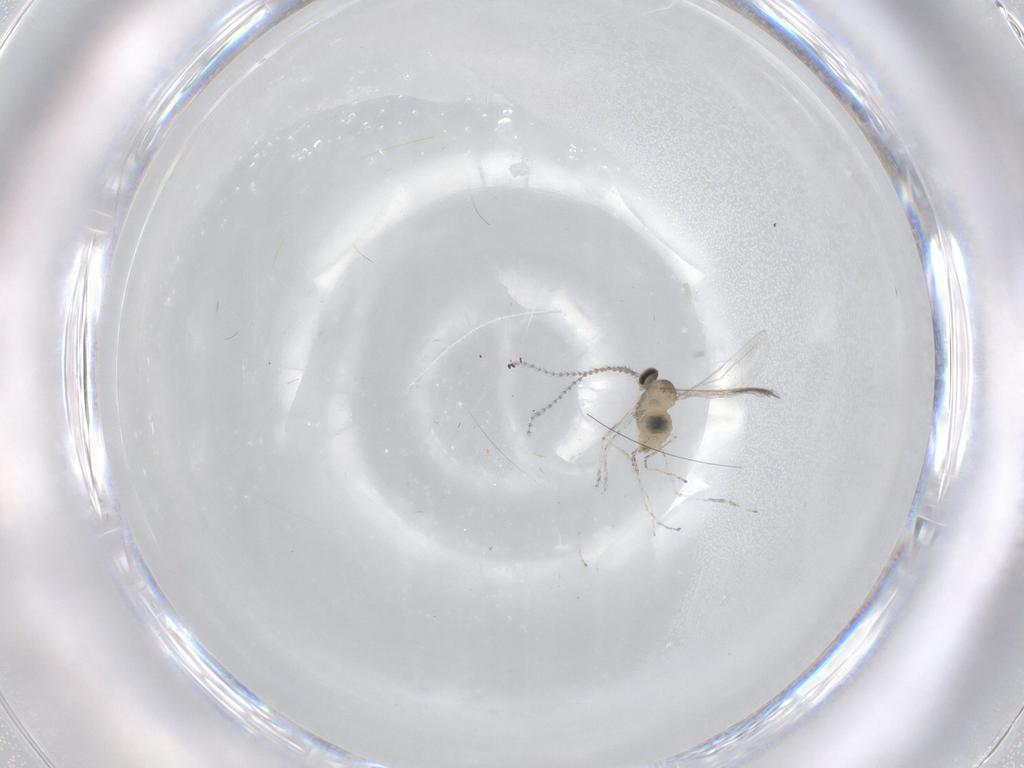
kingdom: Animalia
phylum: Arthropoda
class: Insecta
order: Diptera
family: Cecidomyiidae
